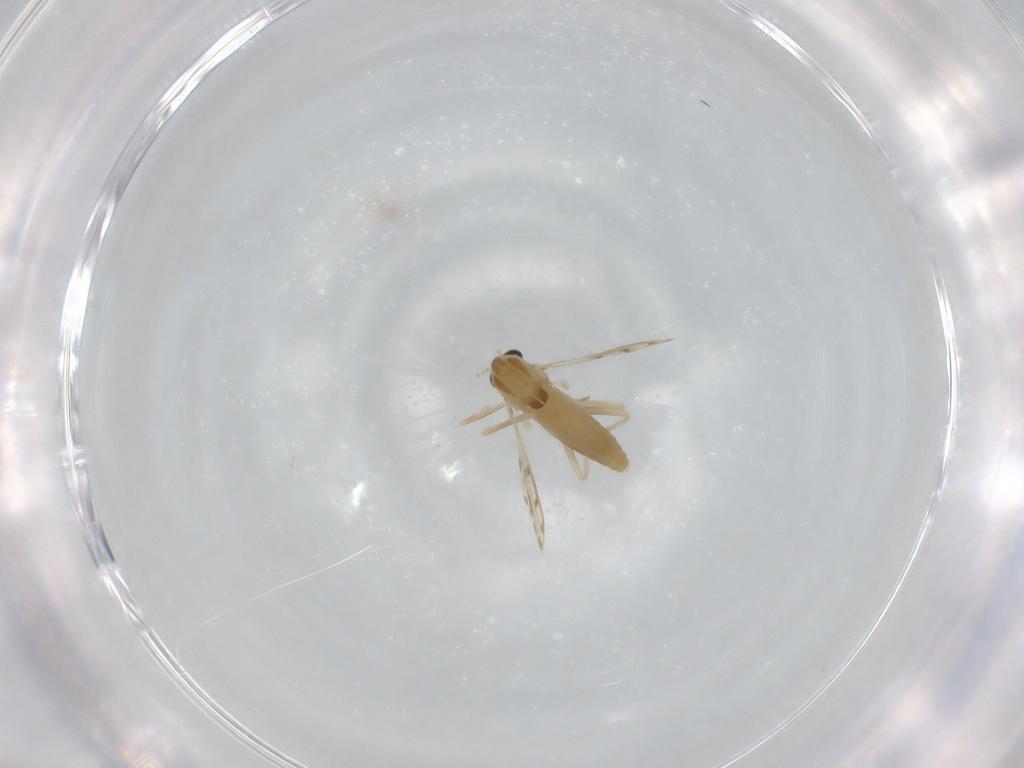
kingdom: Animalia
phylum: Arthropoda
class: Insecta
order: Diptera
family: Chironomidae
